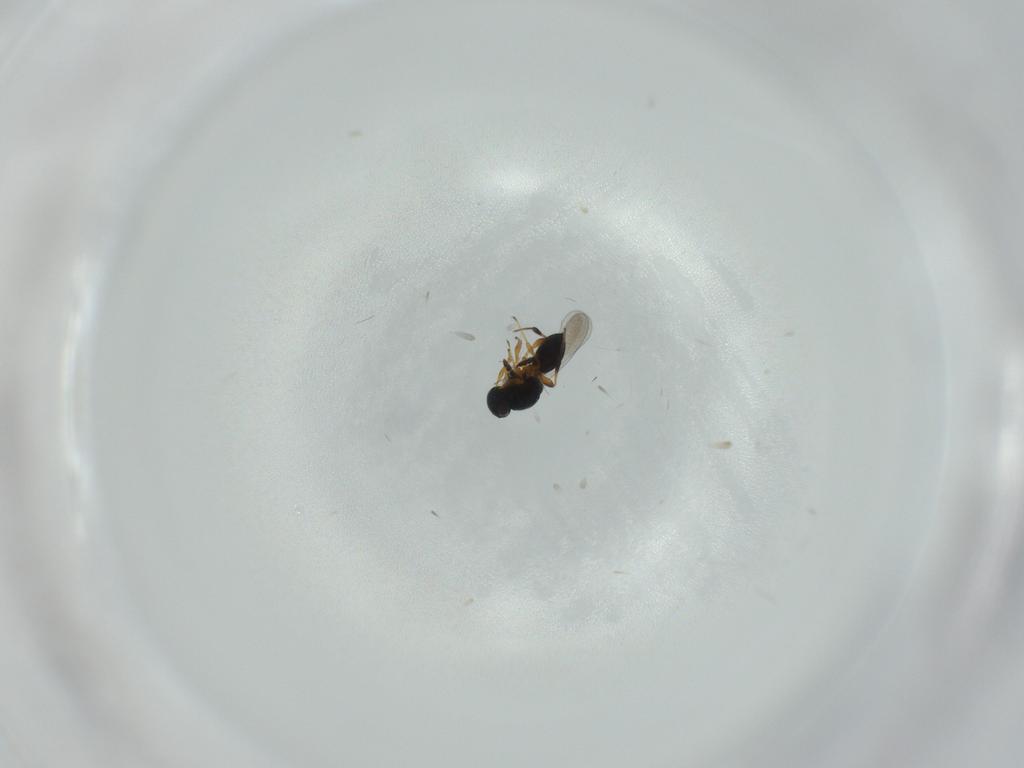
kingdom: Animalia
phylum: Arthropoda
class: Insecta
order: Hymenoptera
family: Platygastridae
